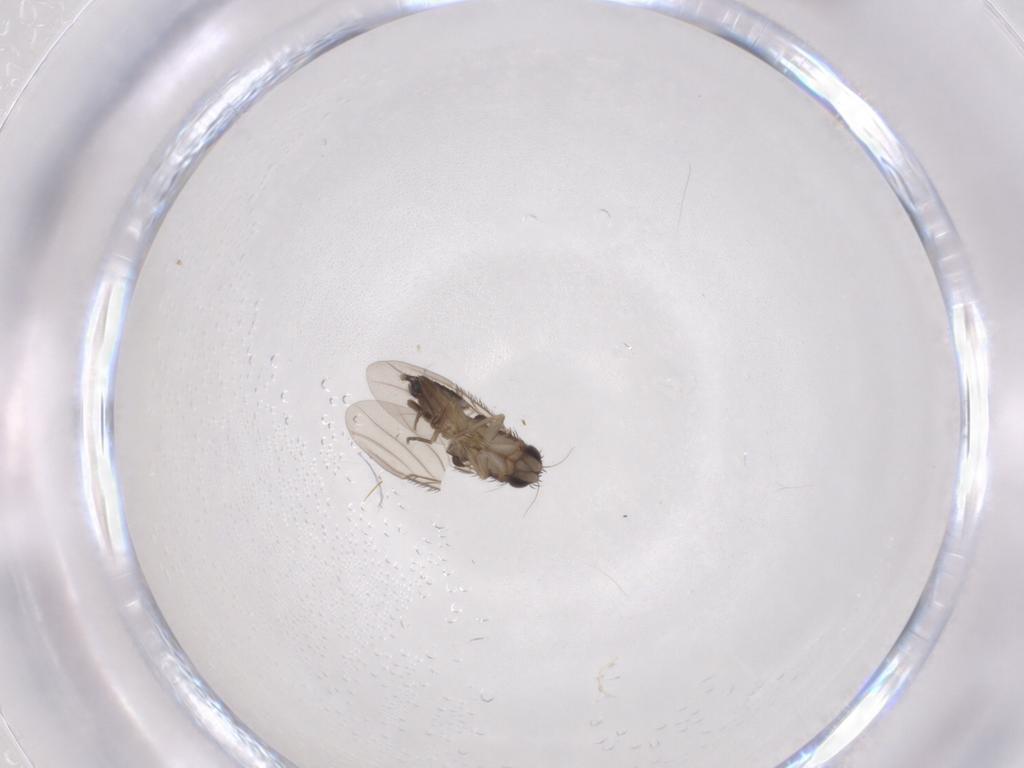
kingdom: Animalia
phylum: Arthropoda
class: Insecta
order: Diptera
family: Phoridae
